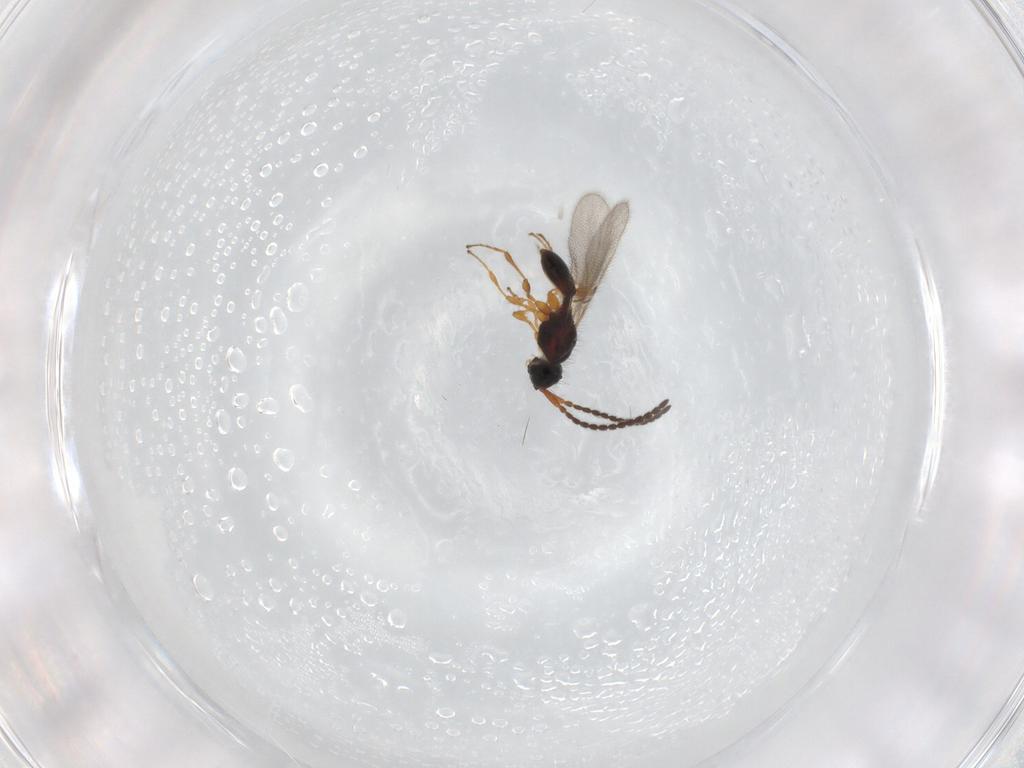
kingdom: Animalia
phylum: Arthropoda
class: Insecta
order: Hymenoptera
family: Diapriidae
